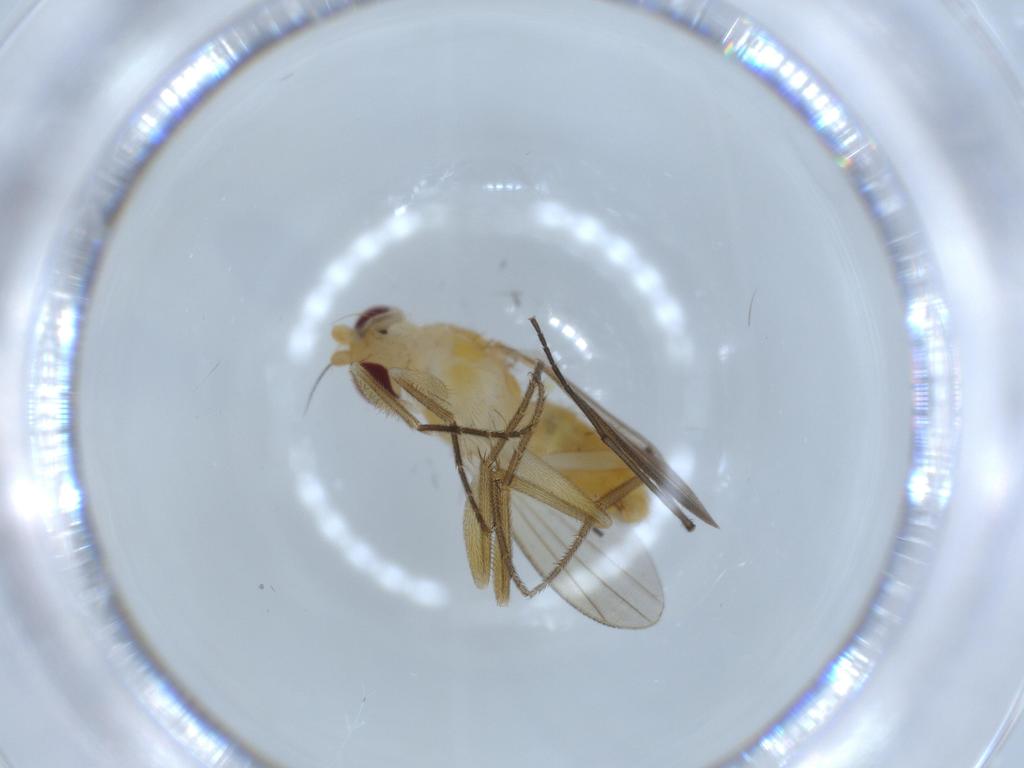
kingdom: Animalia
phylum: Arthropoda
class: Insecta
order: Diptera
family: Clusiidae
